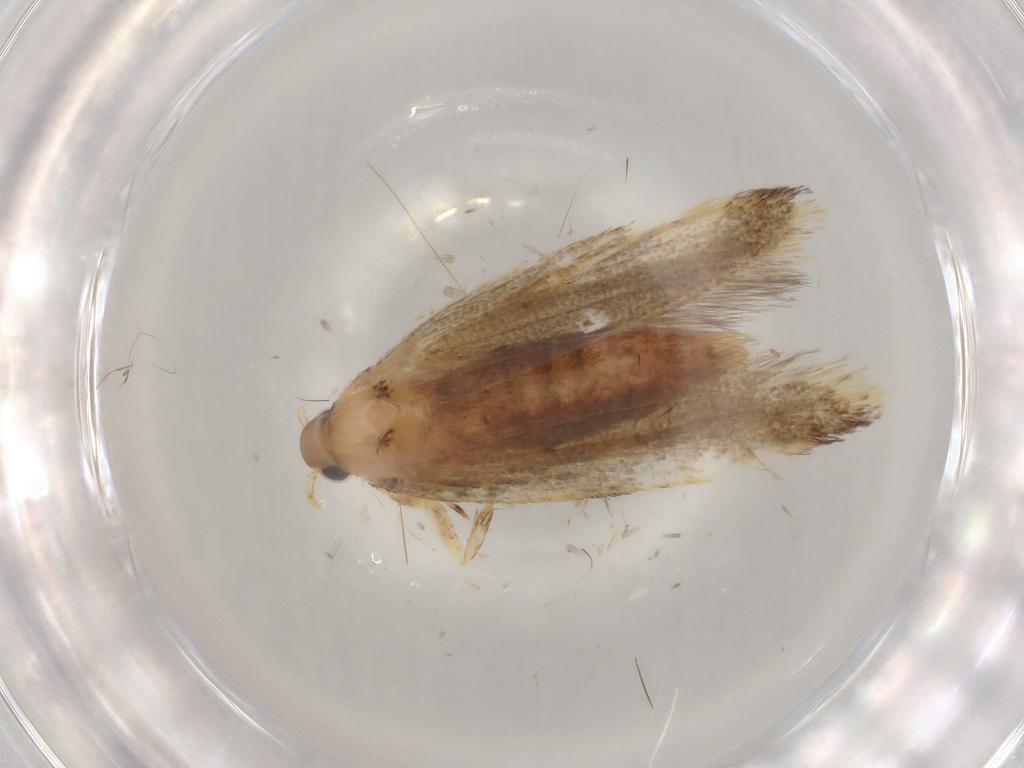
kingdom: Animalia
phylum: Arthropoda
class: Insecta
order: Lepidoptera
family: Autostichidae
